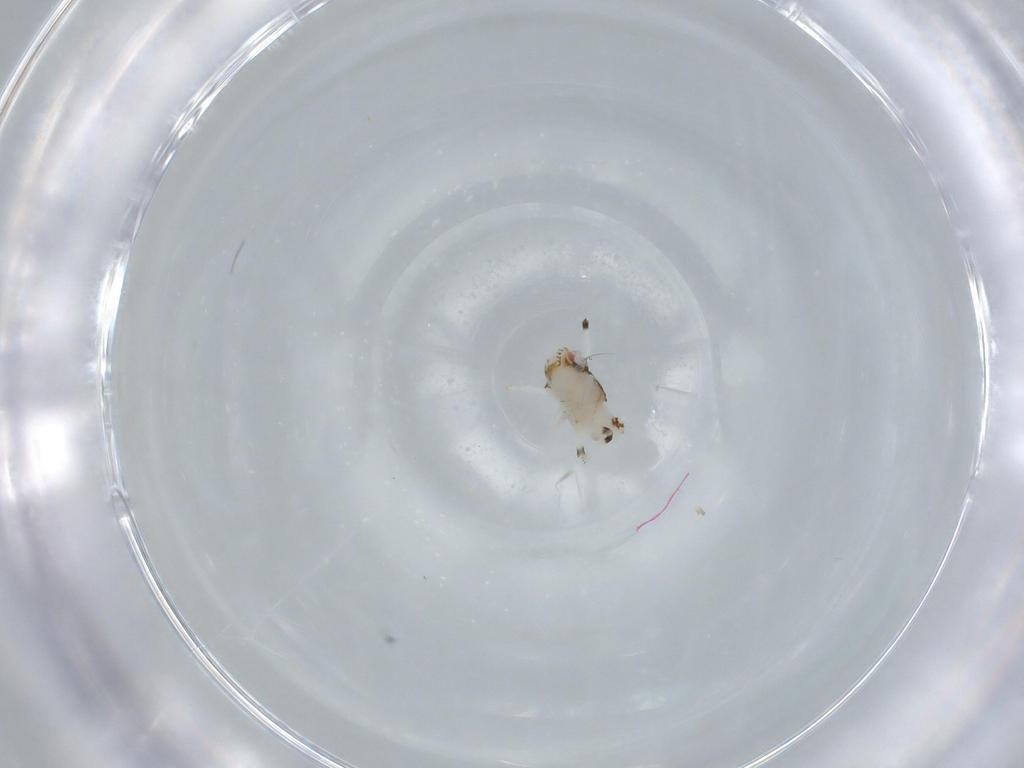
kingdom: Animalia
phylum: Arthropoda
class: Insecta
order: Hemiptera
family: Nogodinidae
